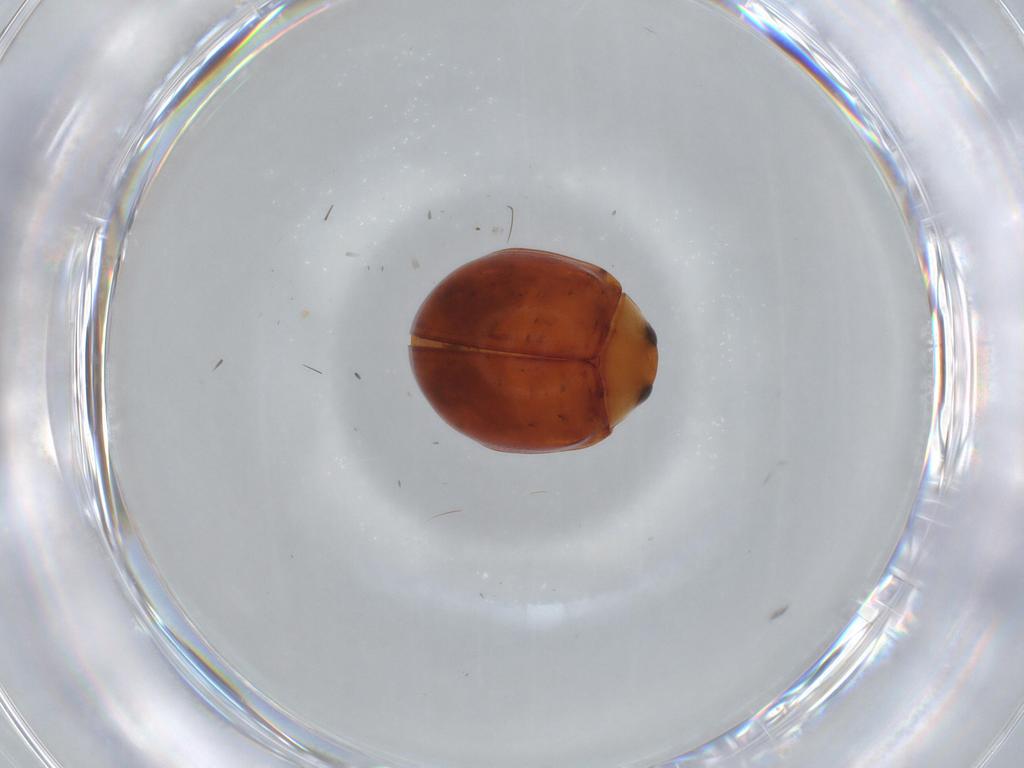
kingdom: Animalia
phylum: Arthropoda
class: Insecta
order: Coleoptera
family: Coccinellidae
